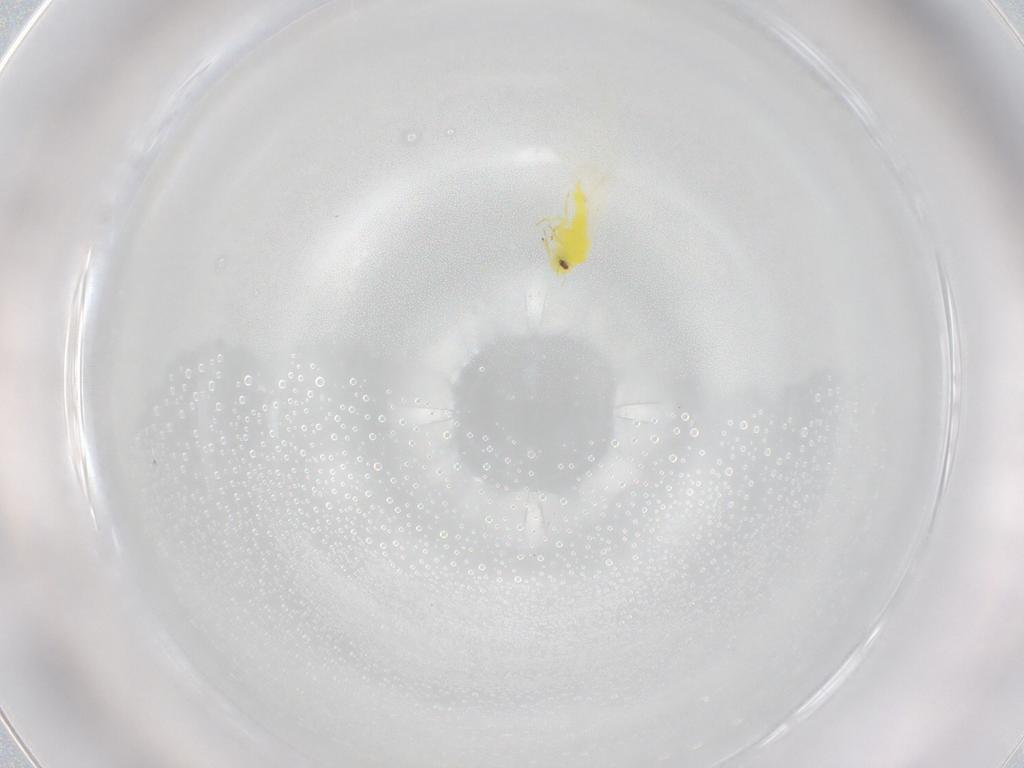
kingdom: Animalia
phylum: Arthropoda
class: Insecta
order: Hemiptera
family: Aleyrodidae
